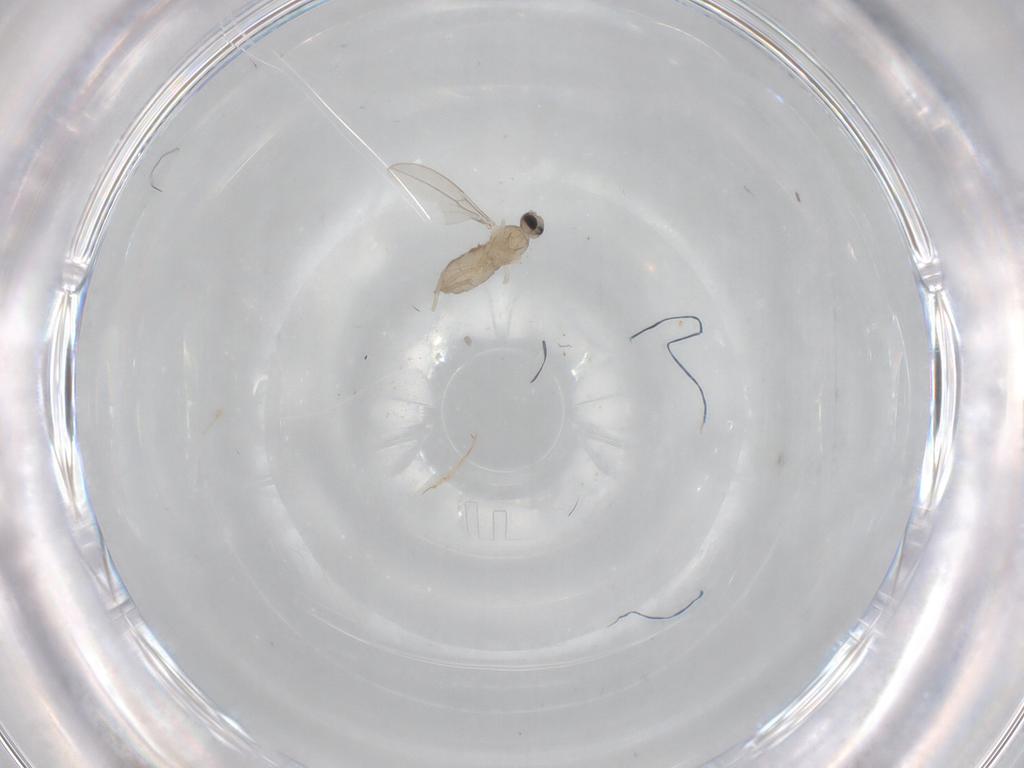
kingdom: Animalia
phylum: Arthropoda
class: Insecta
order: Diptera
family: Cecidomyiidae
